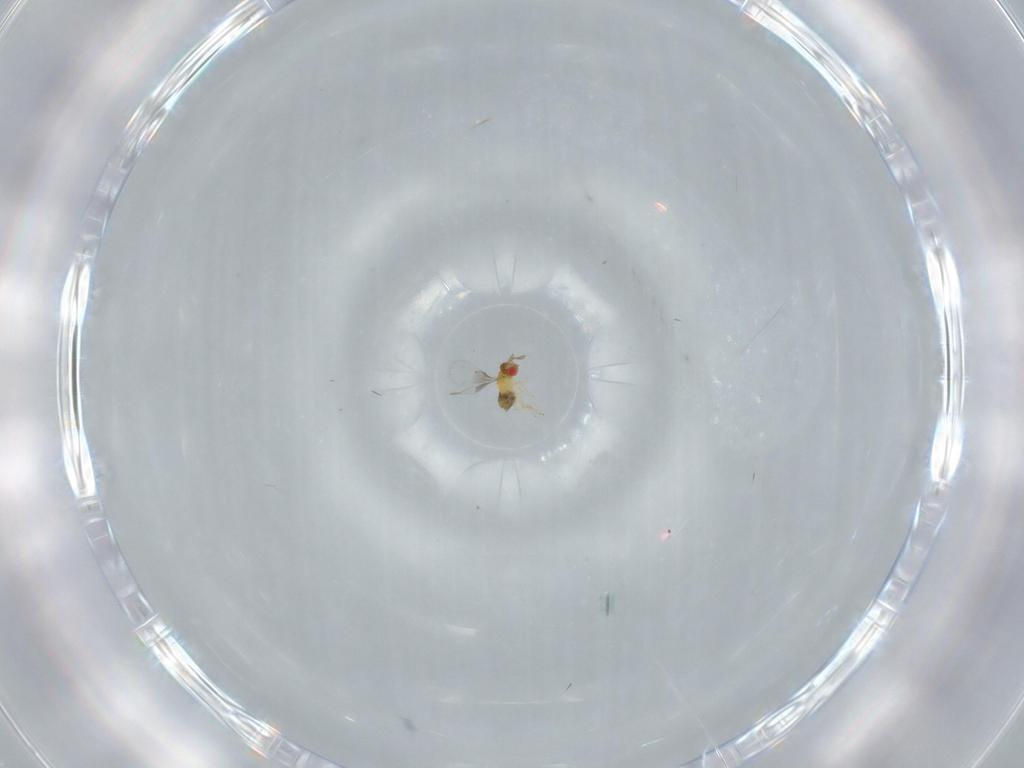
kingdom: Animalia
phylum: Arthropoda
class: Insecta
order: Hymenoptera
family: Trichogrammatidae
